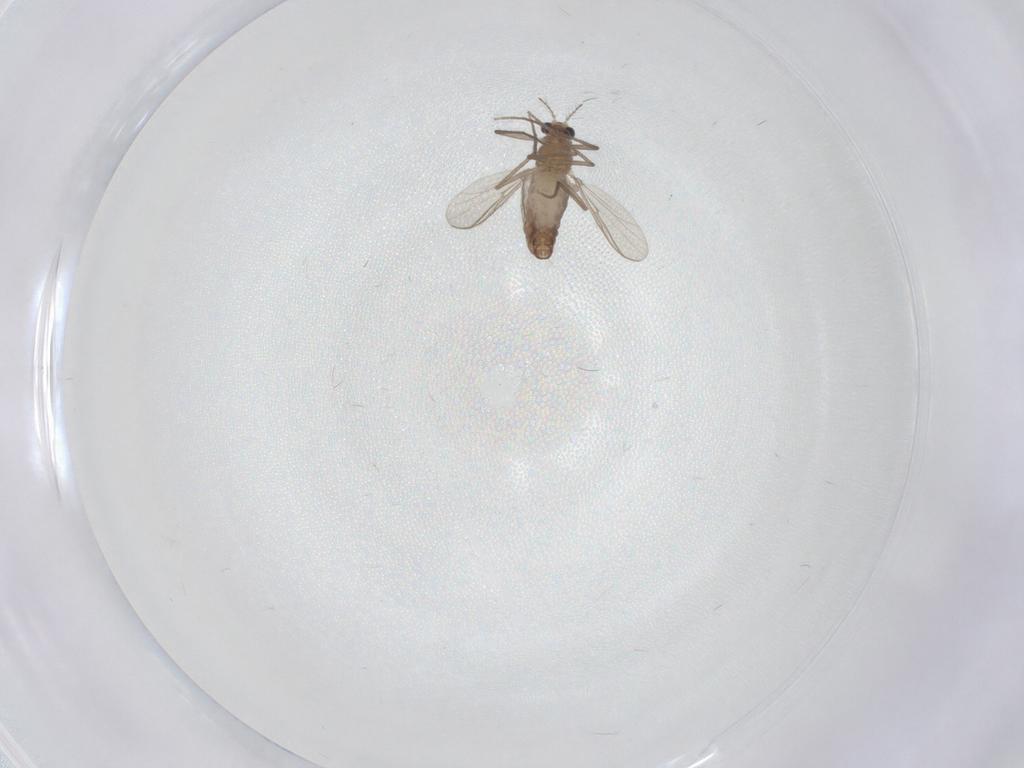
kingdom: Animalia
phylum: Arthropoda
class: Insecta
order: Diptera
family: Chironomidae
